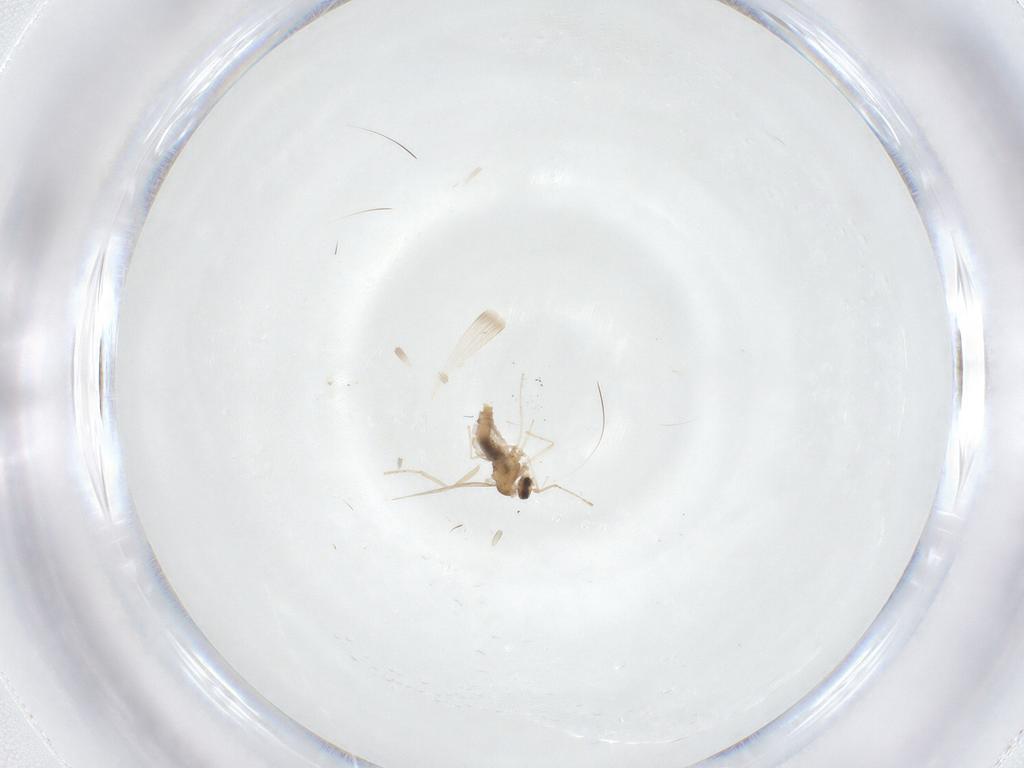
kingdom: Animalia
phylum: Arthropoda
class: Insecta
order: Diptera
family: Cecidomyiidae
